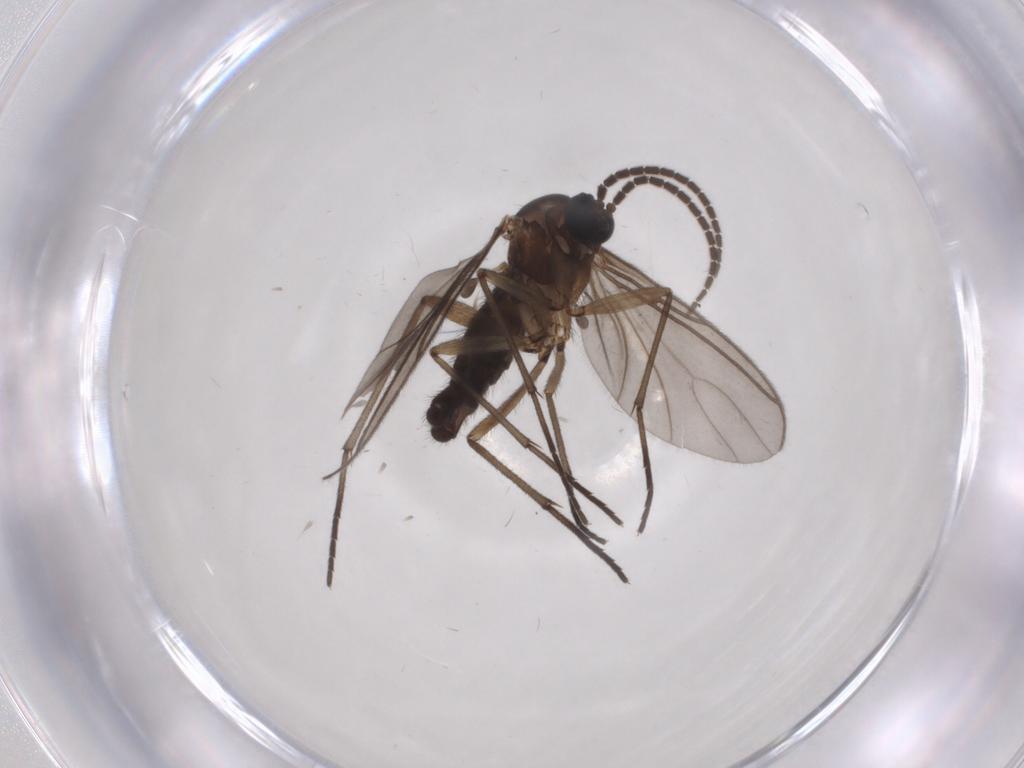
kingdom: Animalia
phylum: Arthropoda
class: Insecta
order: Diptera
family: Sciaridae
